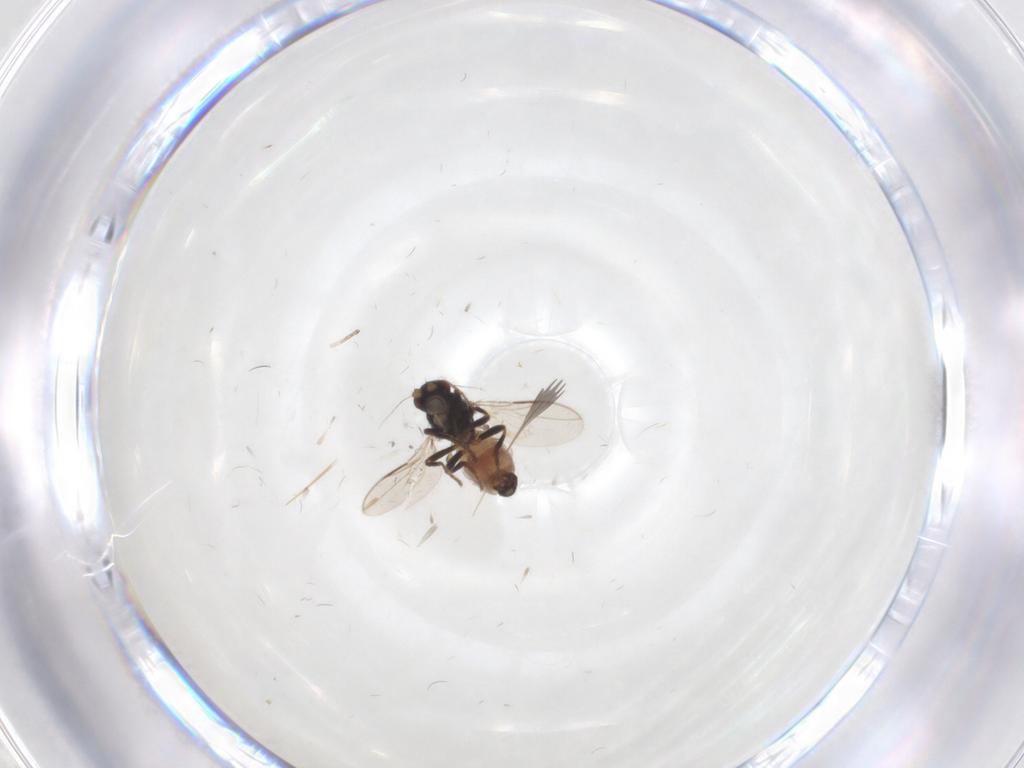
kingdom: Animalia
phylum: Arthropoda
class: Insecta
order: Diptera
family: Sphaeroceridae
